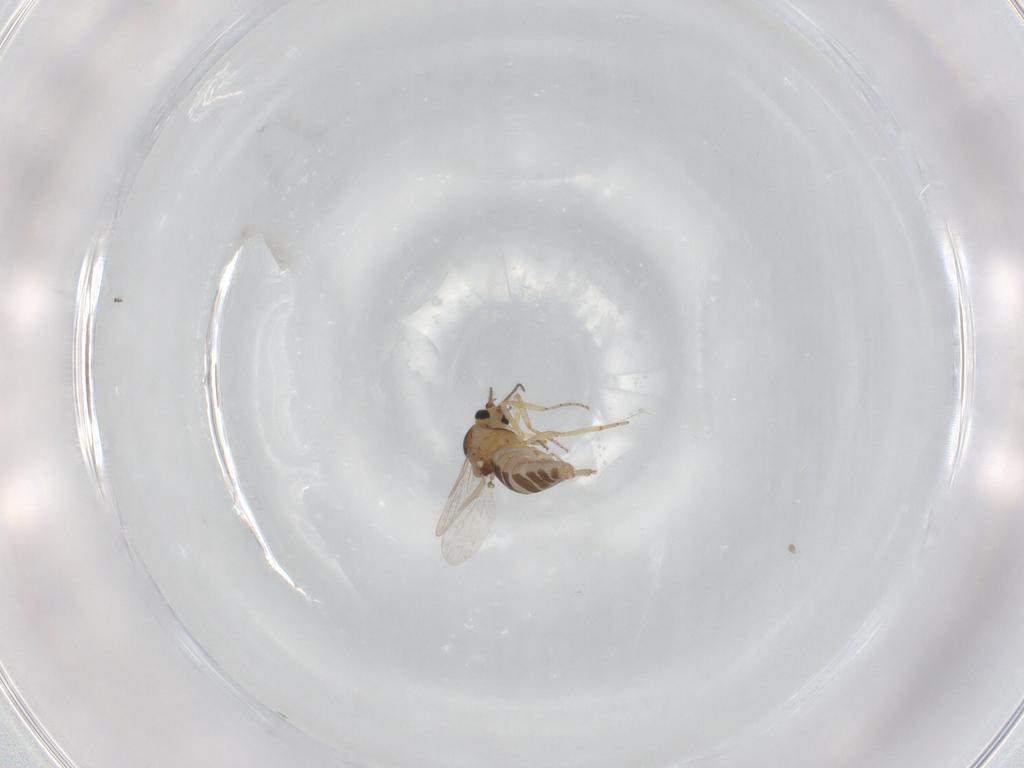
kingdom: Animalia
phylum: Arthropoda
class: Insecta
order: Diptera
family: Ceratopogonidae
